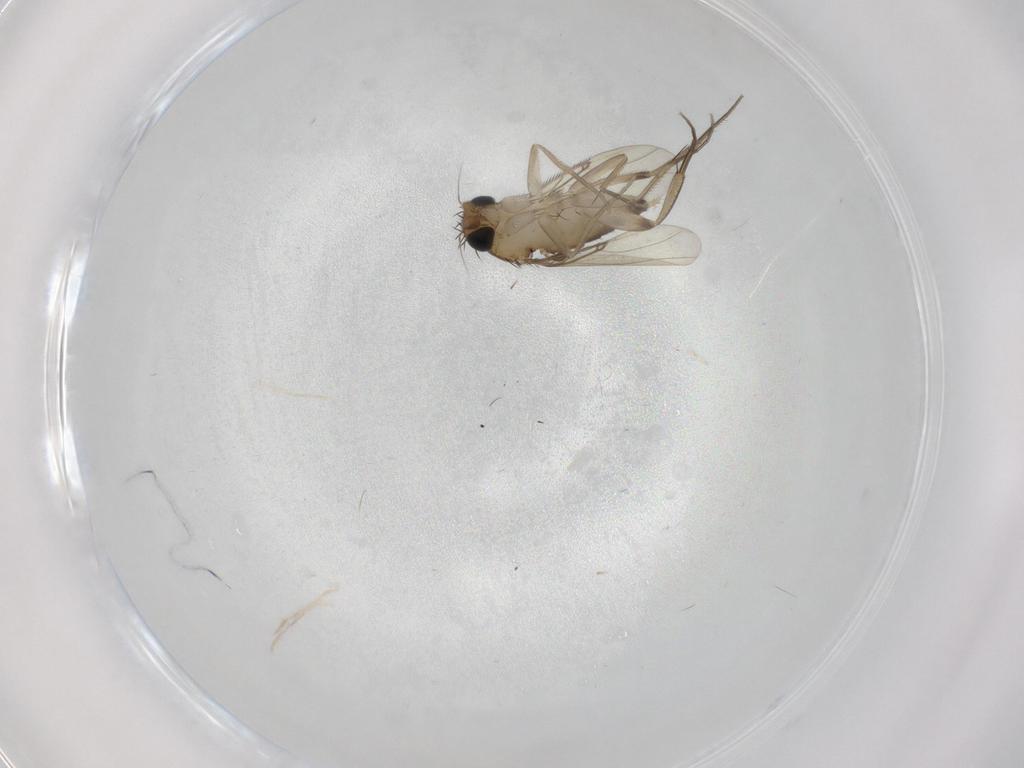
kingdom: Animalia
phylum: Arthropoda
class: Insecta
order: Diptera
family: Phoridae
